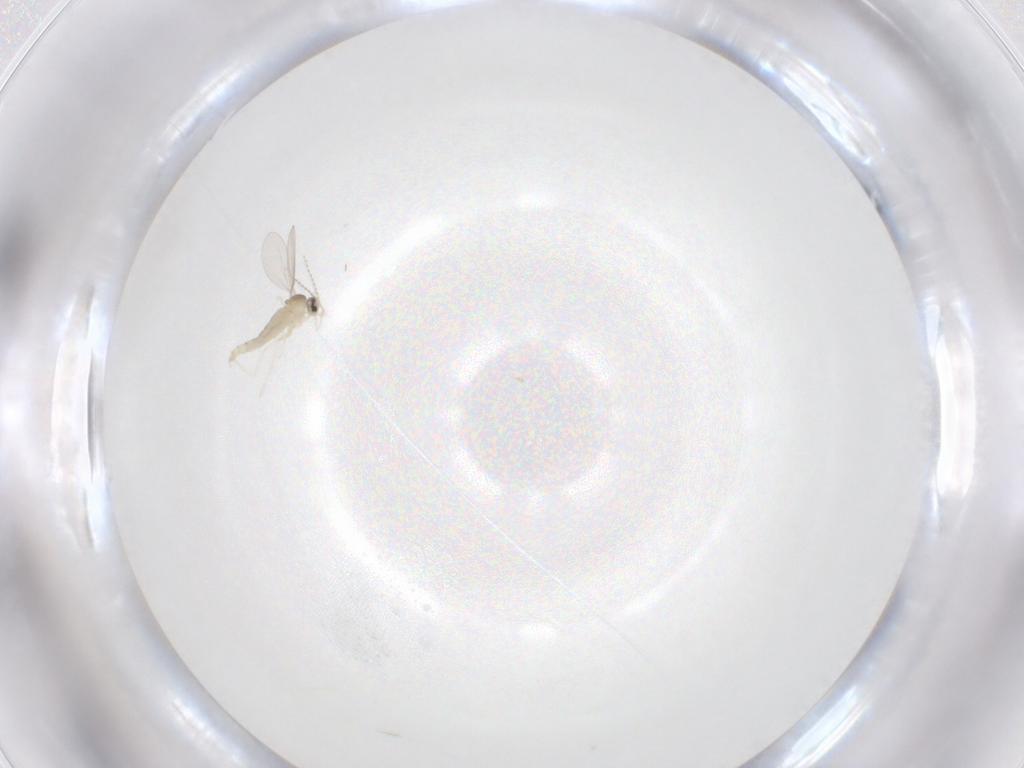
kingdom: Animalia
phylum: Arthropoda
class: Insecta
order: Diptera
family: Cecidomyiidae
